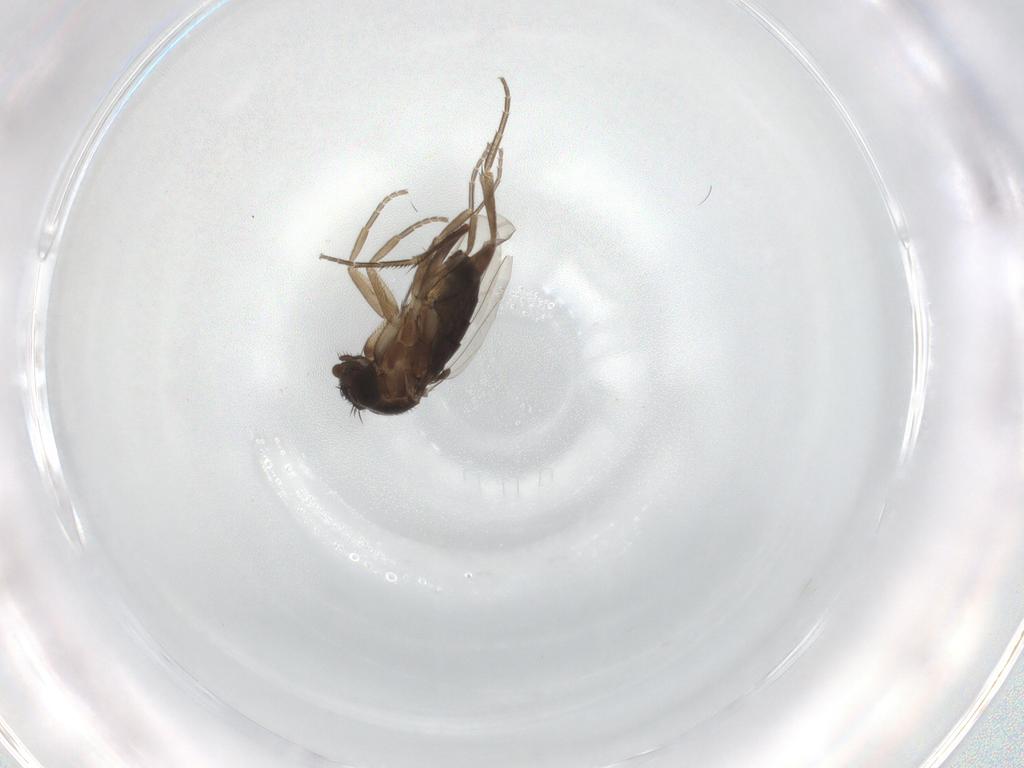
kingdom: Animalia
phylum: Arthropoda
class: Insecta
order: Diptera
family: Phoridae
